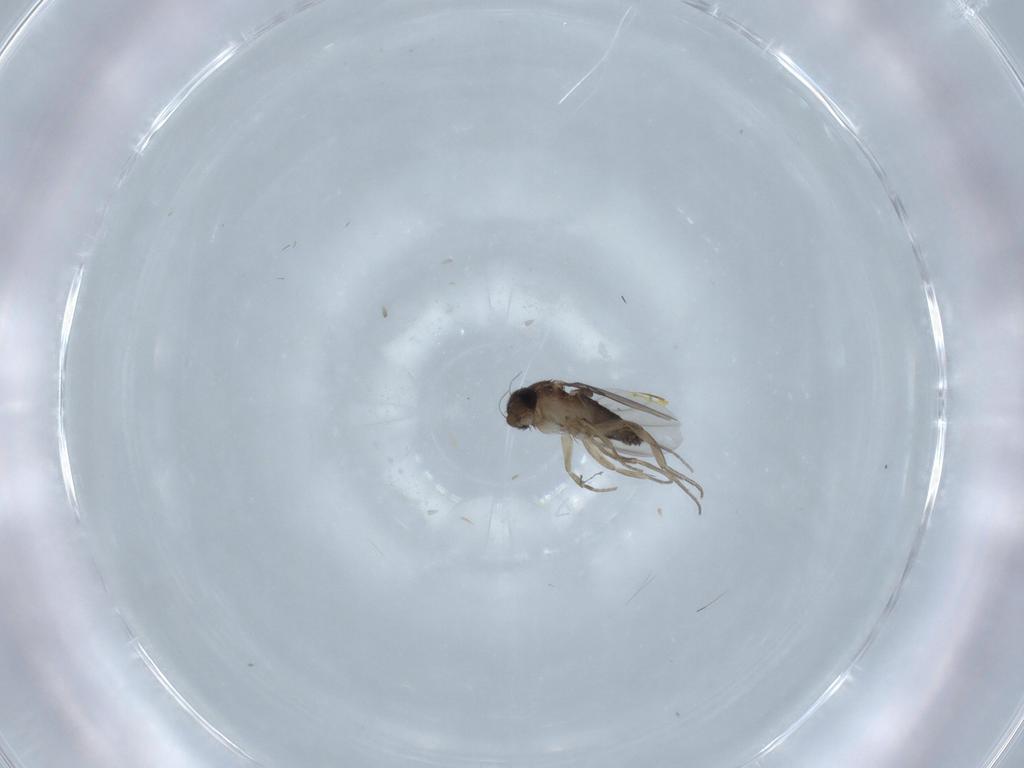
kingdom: Animalia
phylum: Arthropoda
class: Insecta
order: Diptera
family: Phoridae
